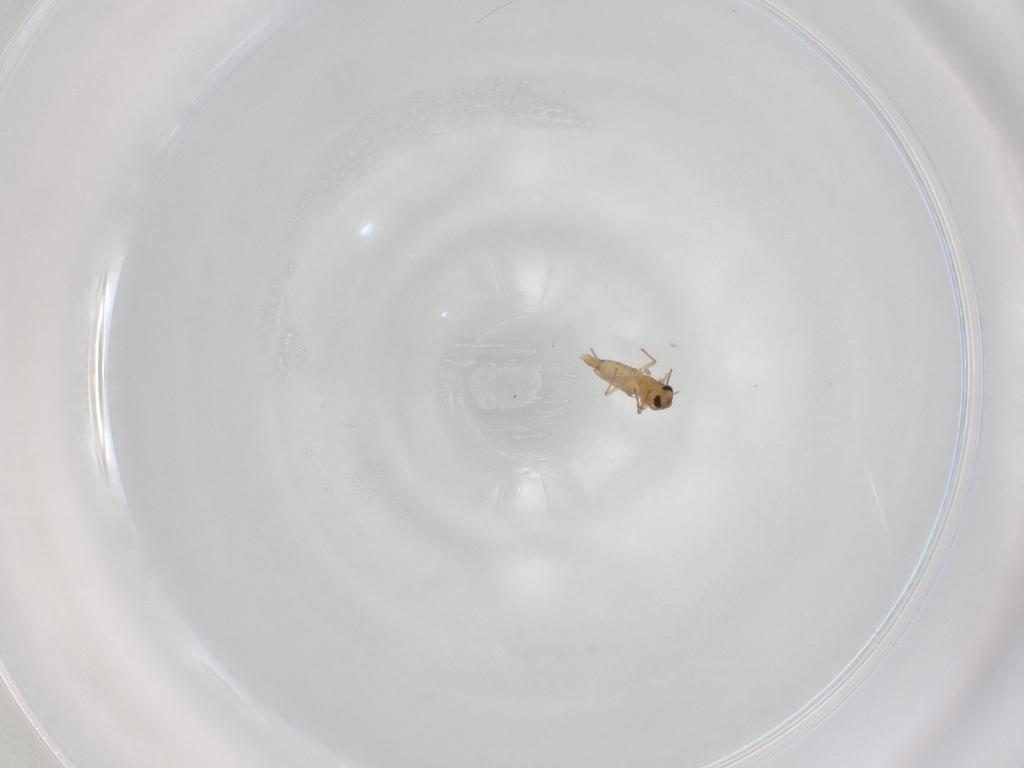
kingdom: Animalia
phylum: Arthropoda
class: Insecta
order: Diptera
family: Chironomidae
